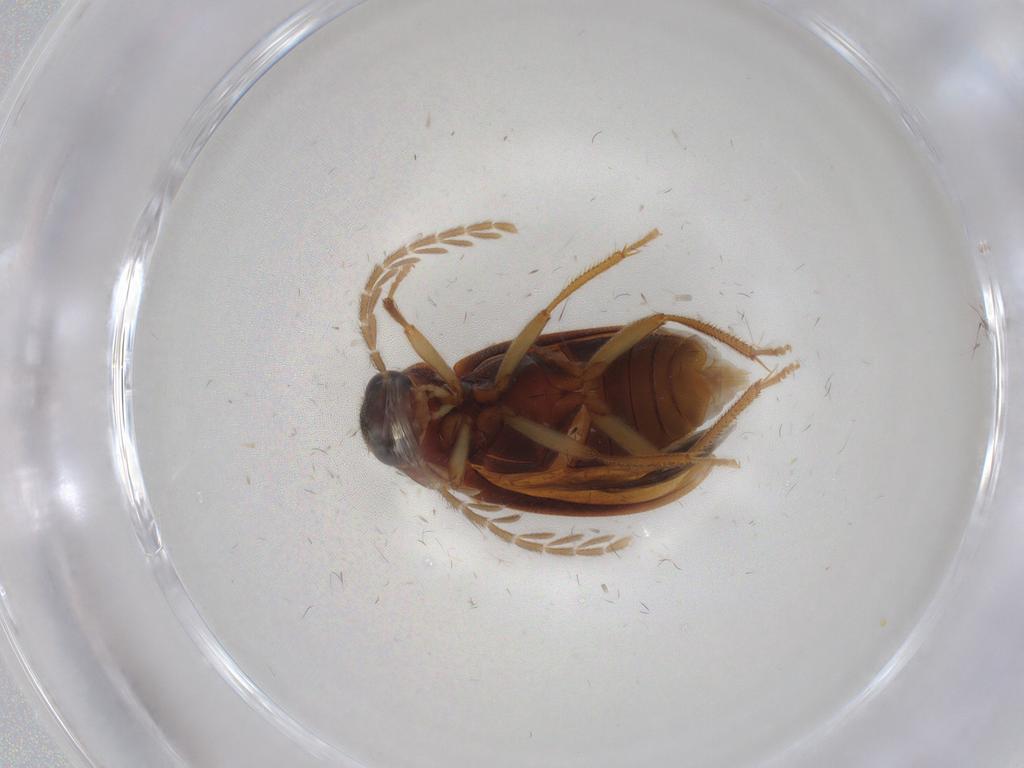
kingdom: Animalia
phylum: Arthropoda
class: Insecta
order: Coleoptera
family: Ptilodactylidae
